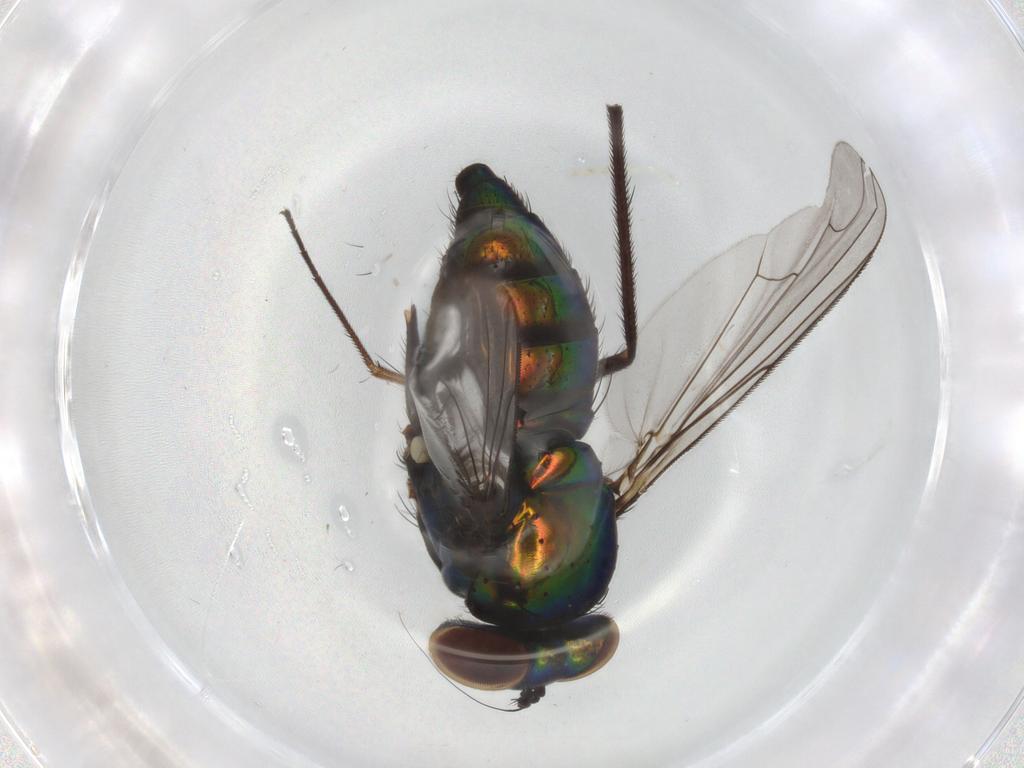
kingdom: Animalia
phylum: Arthropoda
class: Insecta
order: Diptera
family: Dolichopodidae
